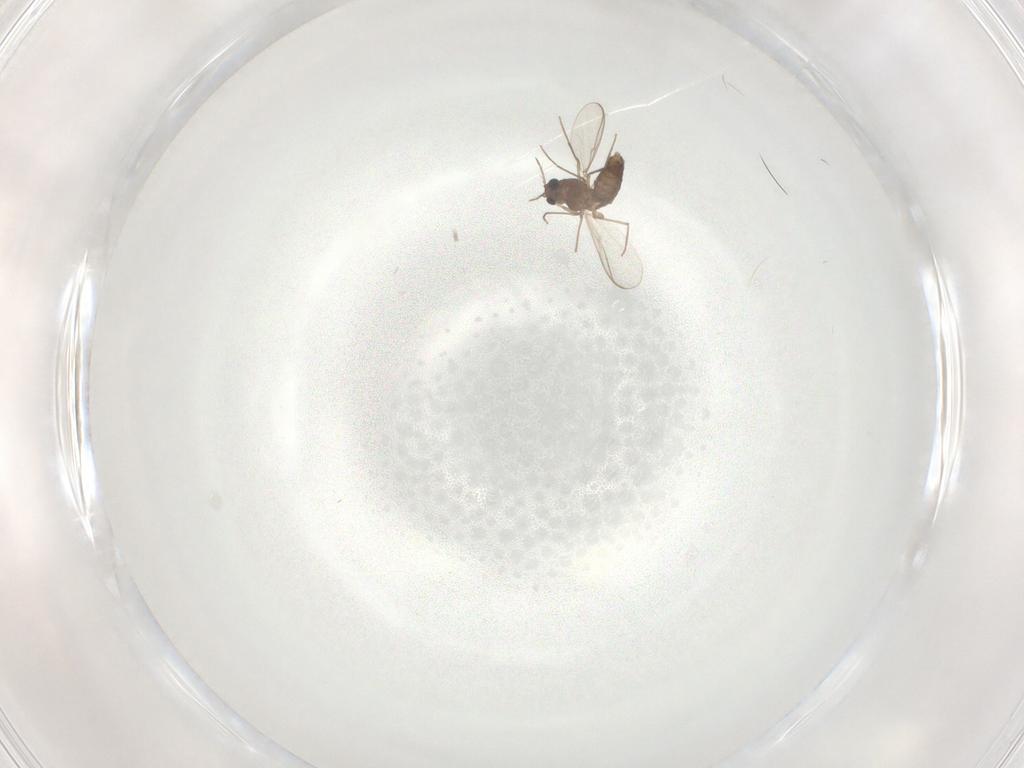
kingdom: Animalia
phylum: Arthropoda
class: Insecta
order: Diptera
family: Chironomidae
